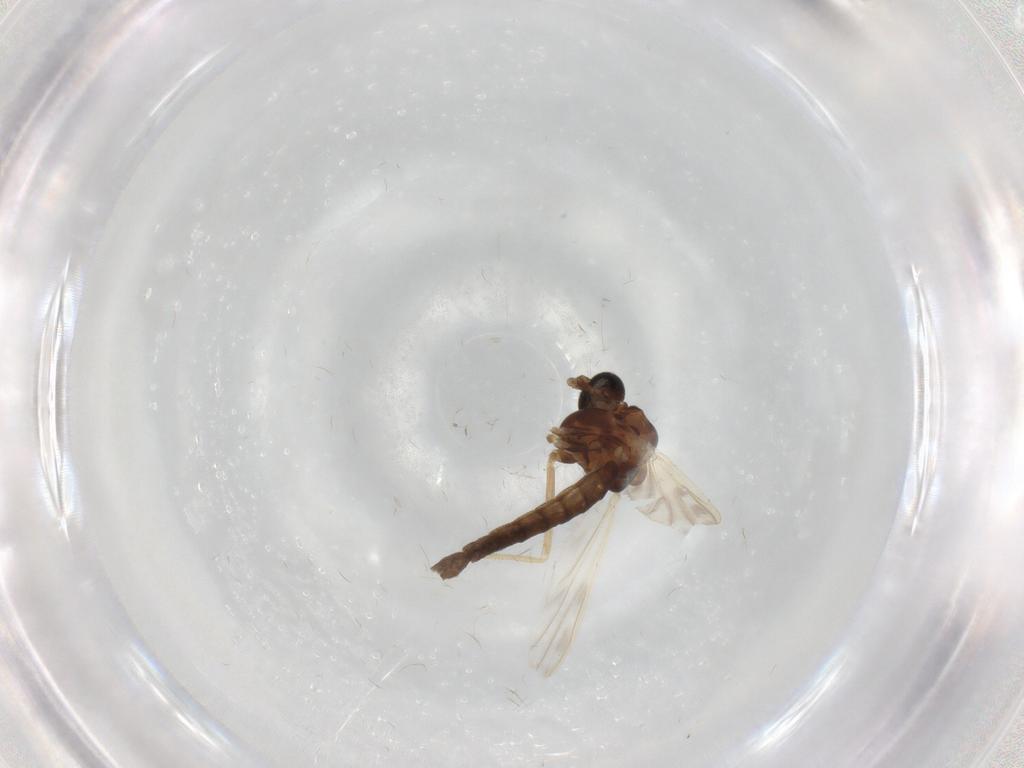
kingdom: Animalia
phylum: Arthropoda
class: Insecta
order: Diptera
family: Chironomidae
